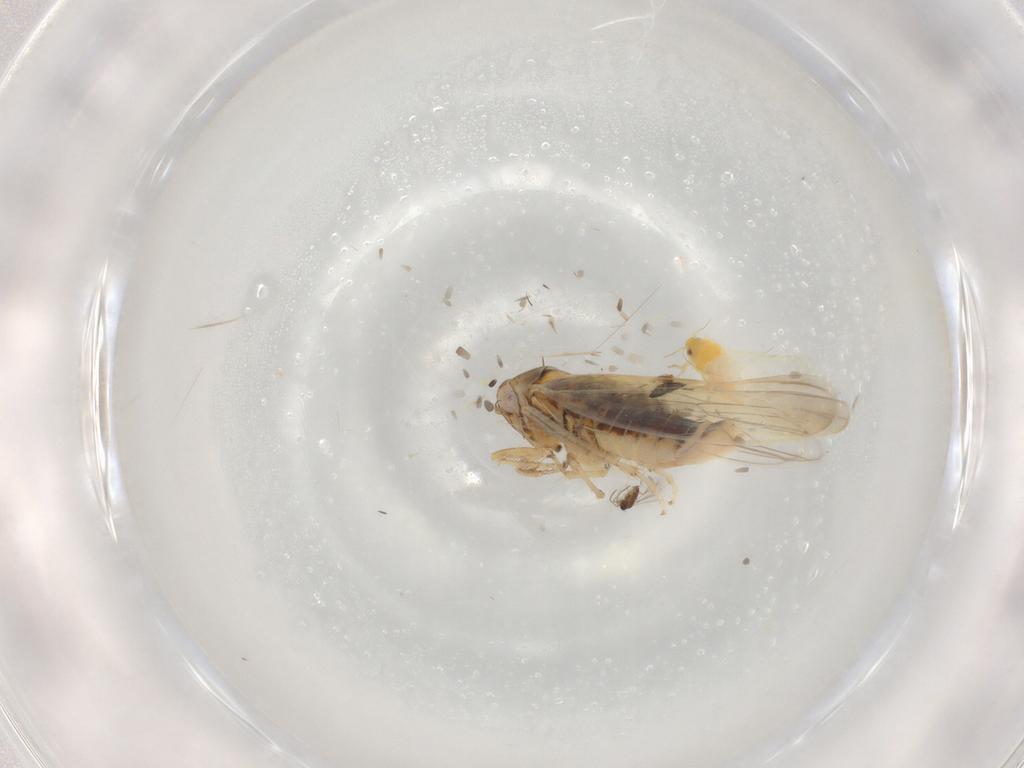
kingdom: Animalia
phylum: Arthropoda
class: Insecta
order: Hemiptera
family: Cicadellidae
